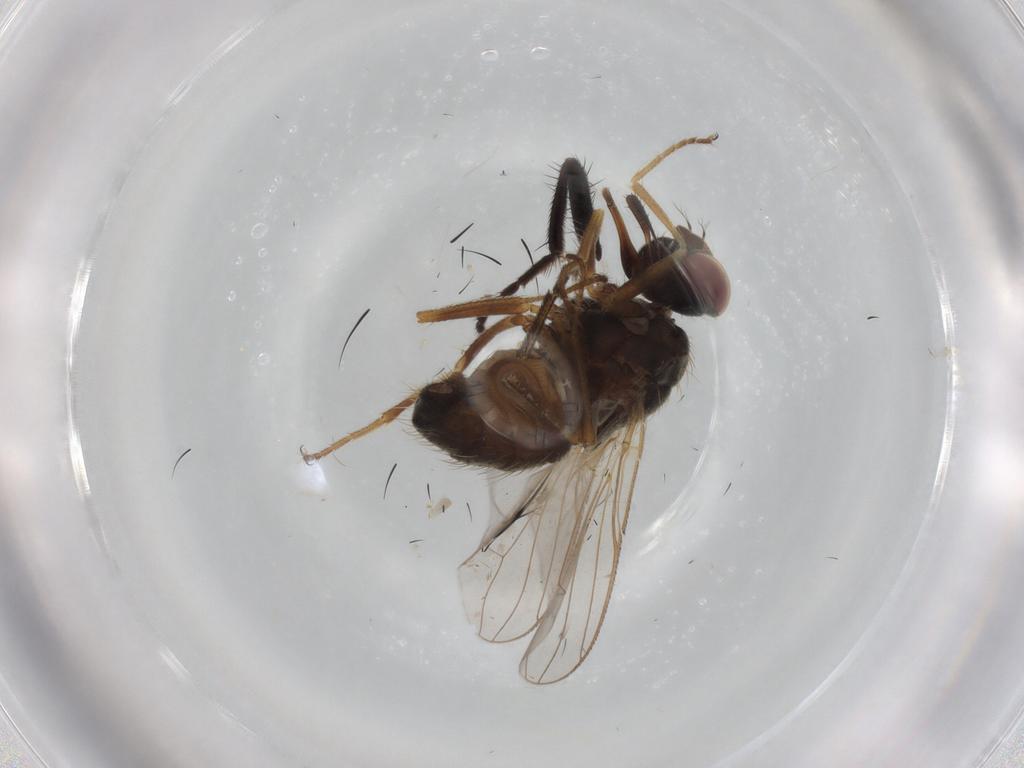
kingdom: Animalia
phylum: Arthropoda
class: Insecta
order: Diptera
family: Muscidae
